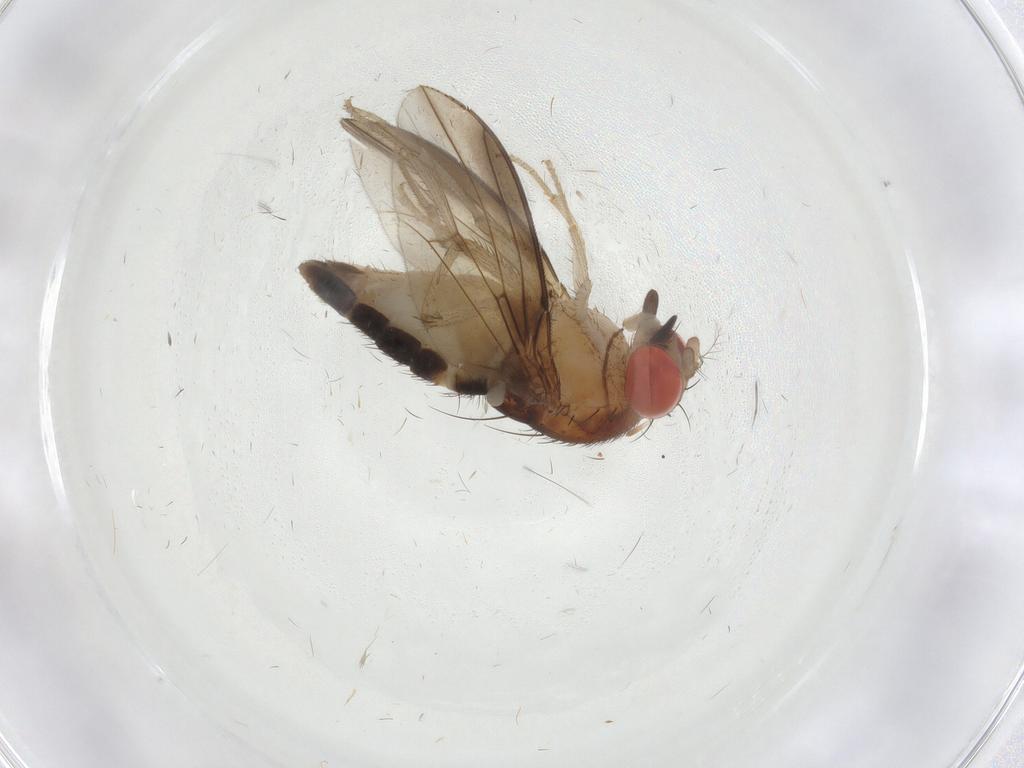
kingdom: Animalia
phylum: Arthropoda
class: Insecta
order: Diptera
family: Drosophilidae
